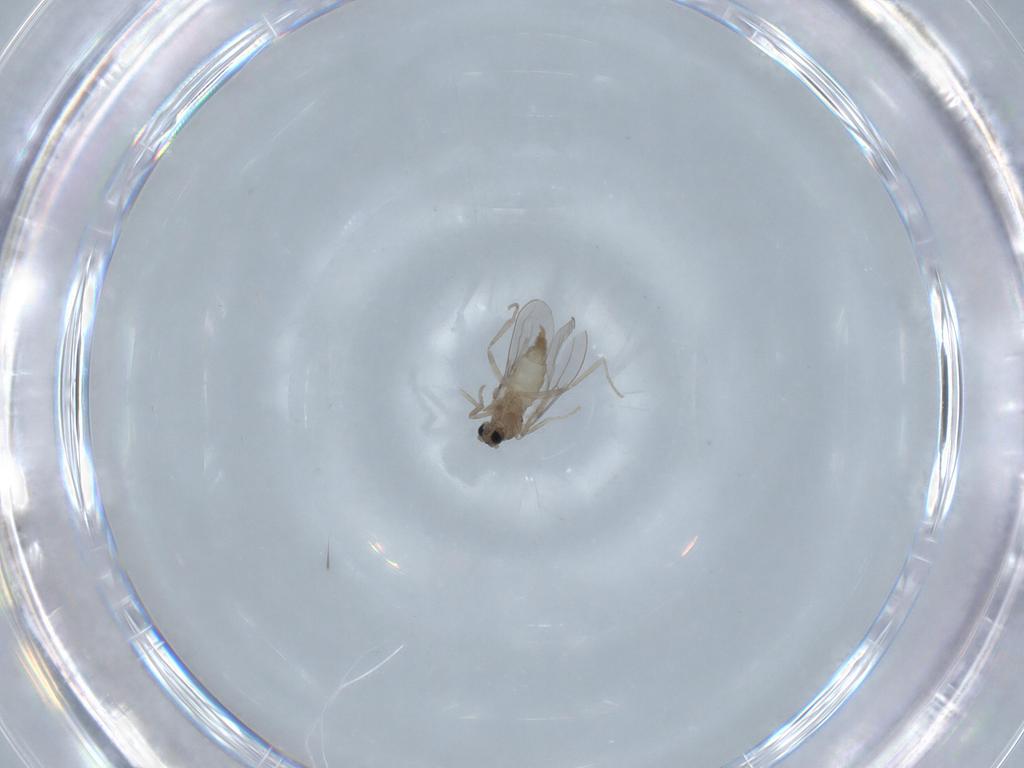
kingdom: Animalia
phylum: Arthropoda
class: Insecta
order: Diptera
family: Cecidomyiidae
